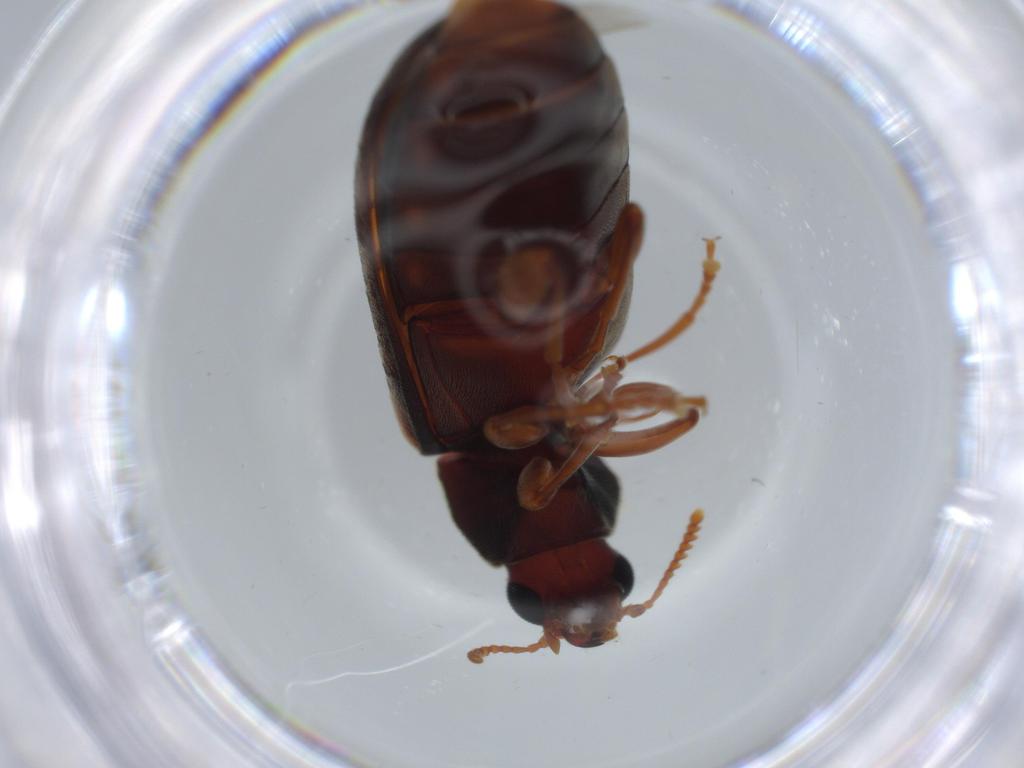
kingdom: Animalia
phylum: Arthropoda
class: Insecta
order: Coleoptera
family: Mycteridae
